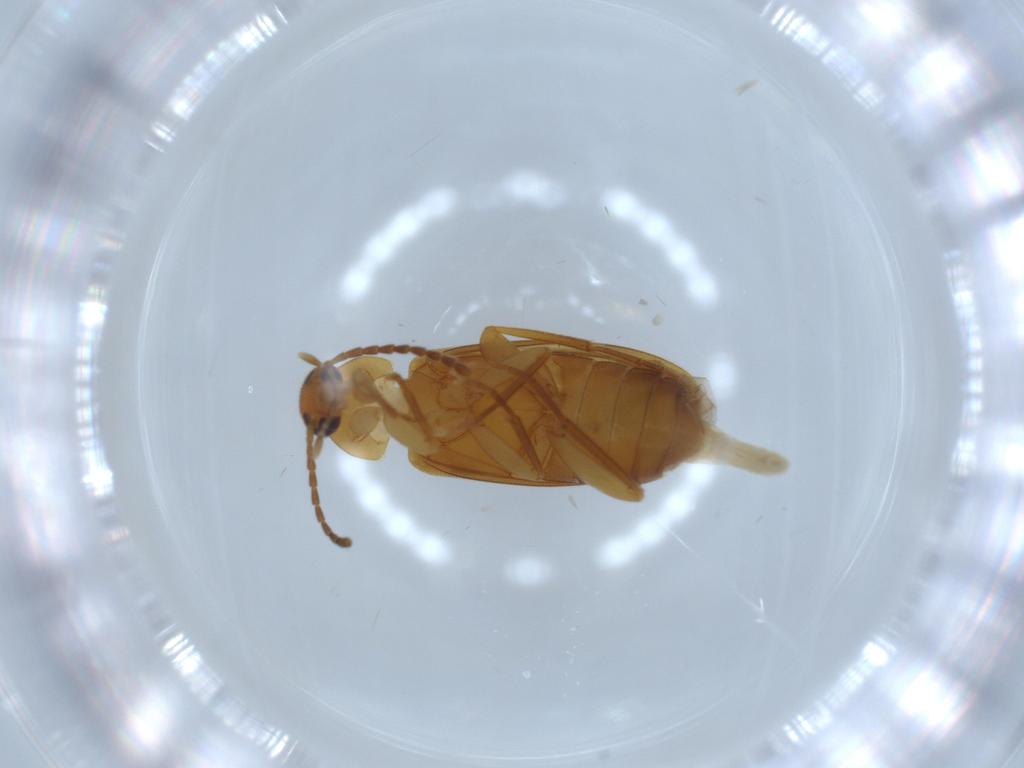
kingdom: Animalia
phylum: Arthropoda
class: Insecta
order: Coleoptera
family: Scraptiidae
